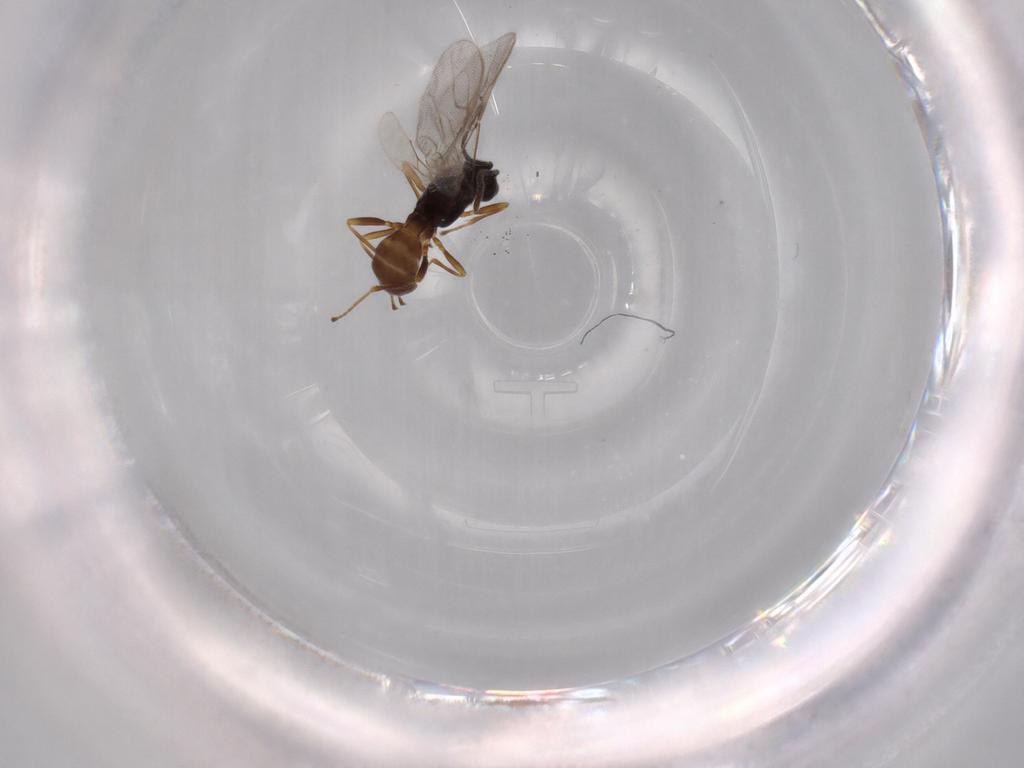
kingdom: Animalia
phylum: Arthropoda
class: Insecta
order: Hymenoptera
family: Braconidae
